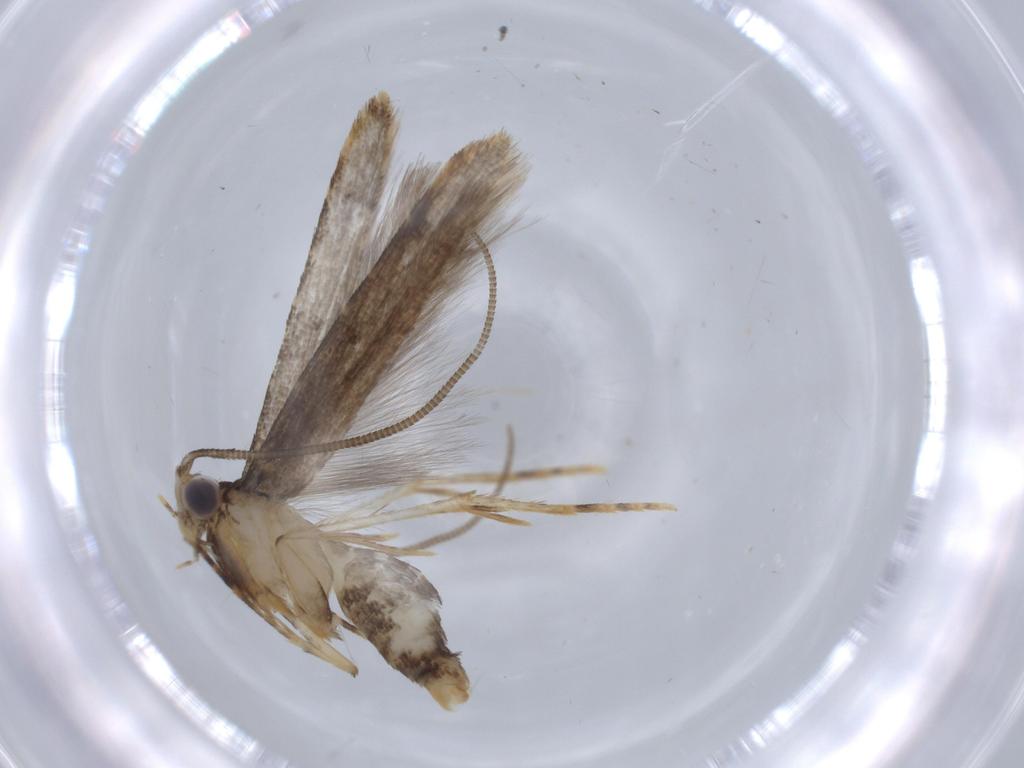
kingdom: Animalia
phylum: Arthropoda
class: Insecta
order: Lepidoptera
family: Tineidae
